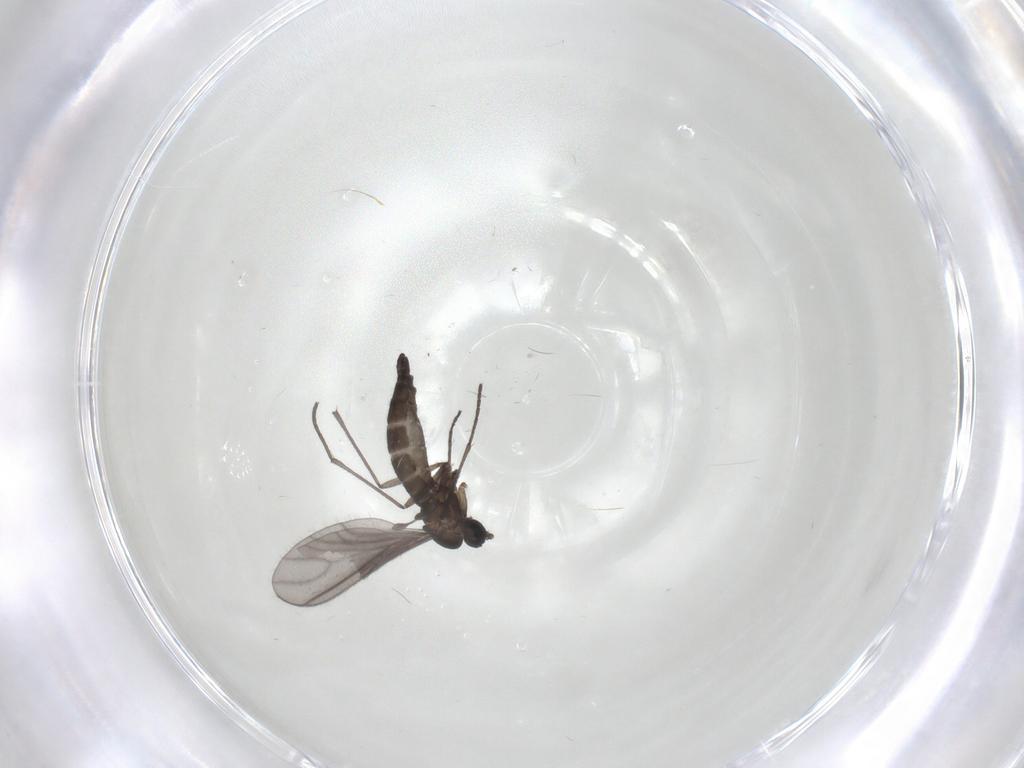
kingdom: Animalia
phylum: Arthropoda
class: Insecta
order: Diptera
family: Sciaridae
